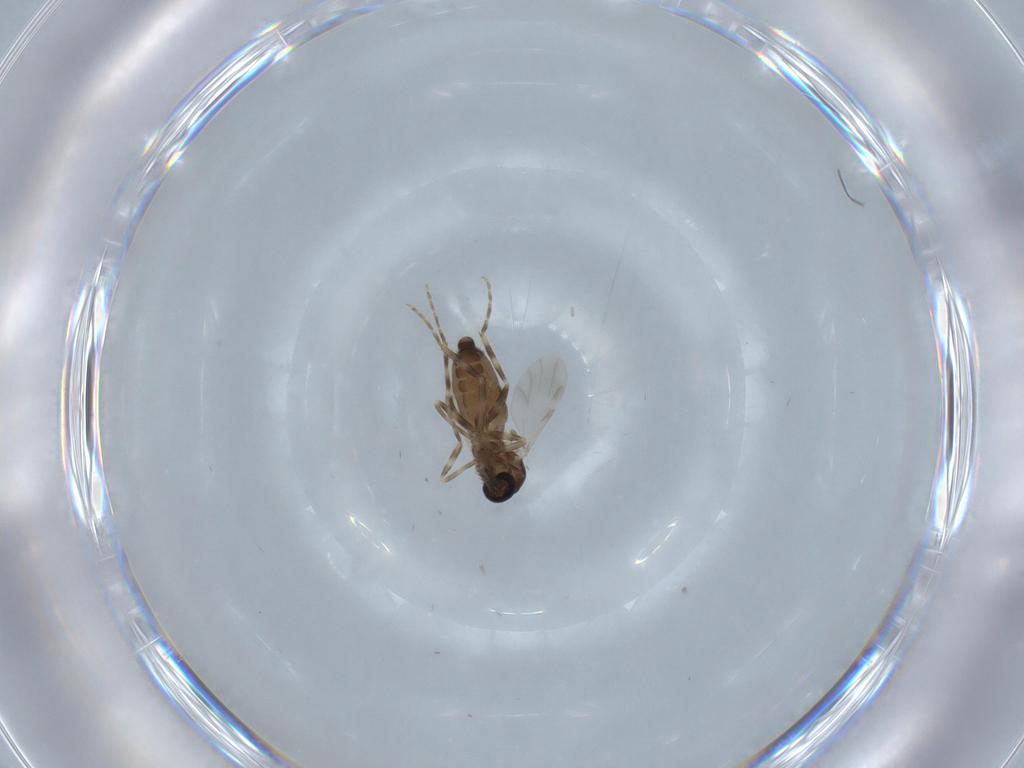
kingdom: Animalia
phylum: Arthropoda
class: Insecta
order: Diptera
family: Ceratopogonidae
